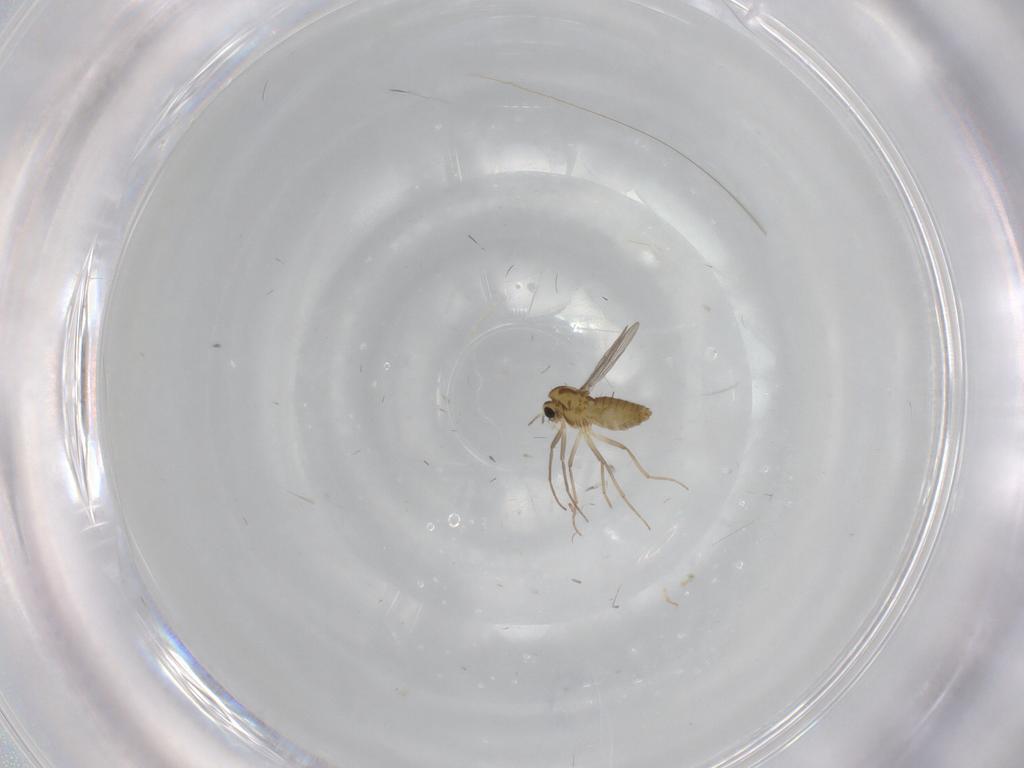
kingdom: Animalia
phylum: Arthropoda
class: Insecta
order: Diptera
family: Chironomidae
